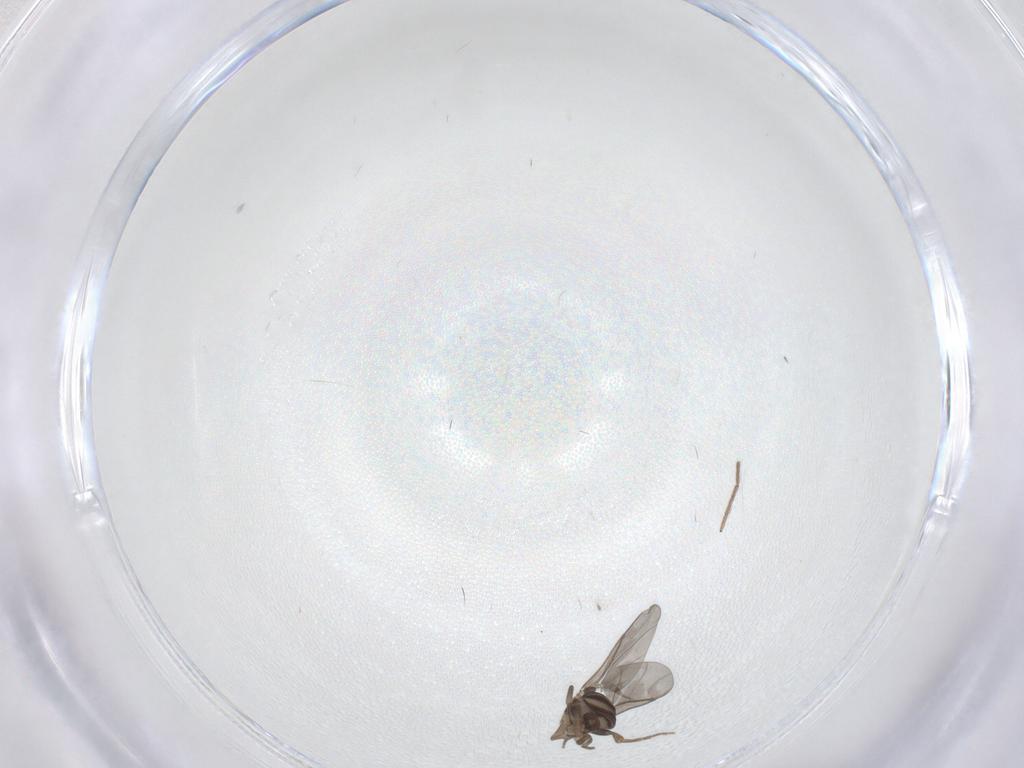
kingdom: Animalia
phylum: Arthropoda
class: Insecta
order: Diptera
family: Phoridae
